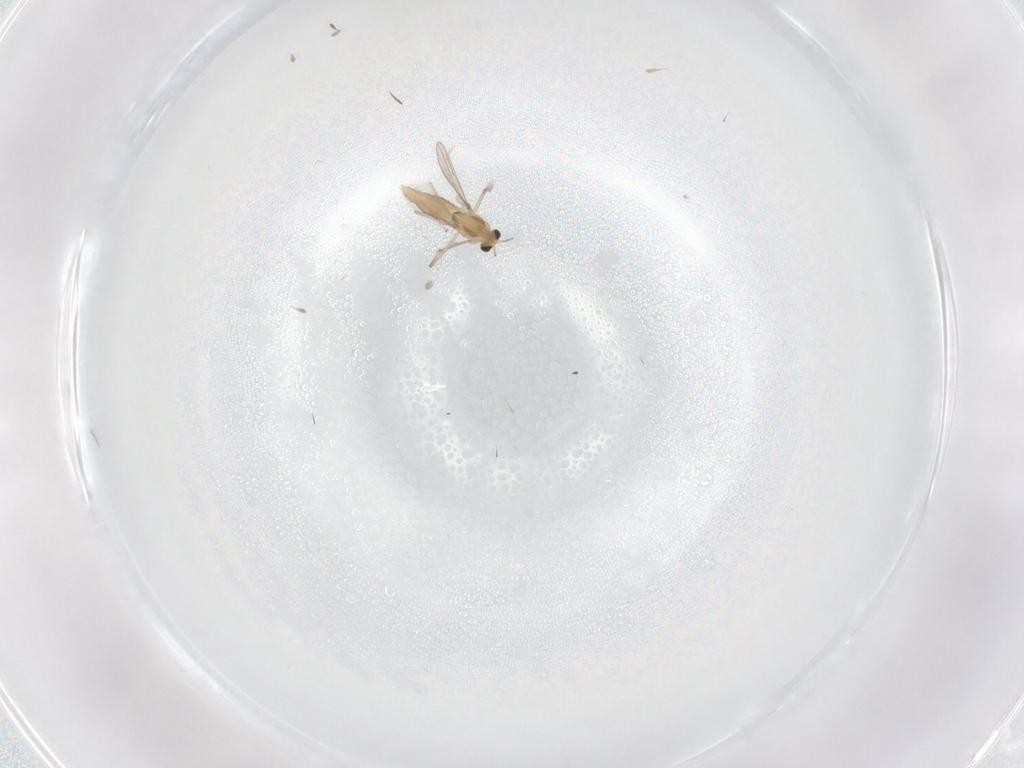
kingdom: Animalia
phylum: Arthropoda
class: Insecta
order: Diptera
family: Chironomidae
